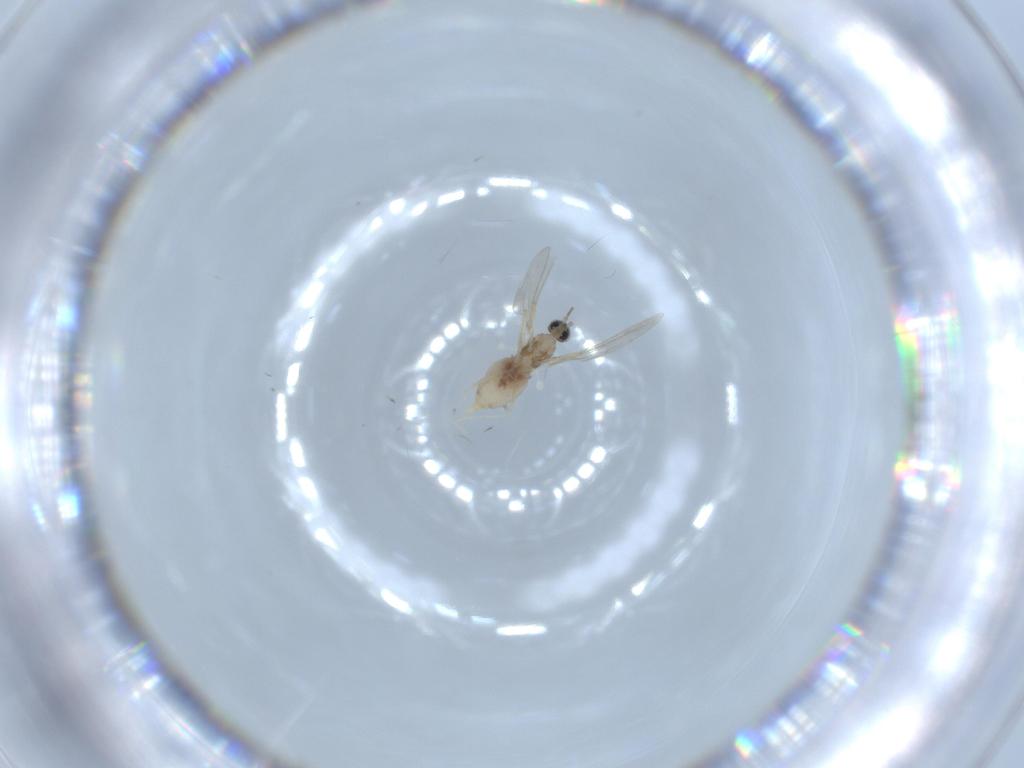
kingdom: Animalia
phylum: Arthropoda
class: Insecta
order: Diptera
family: Cecidomyiidae
